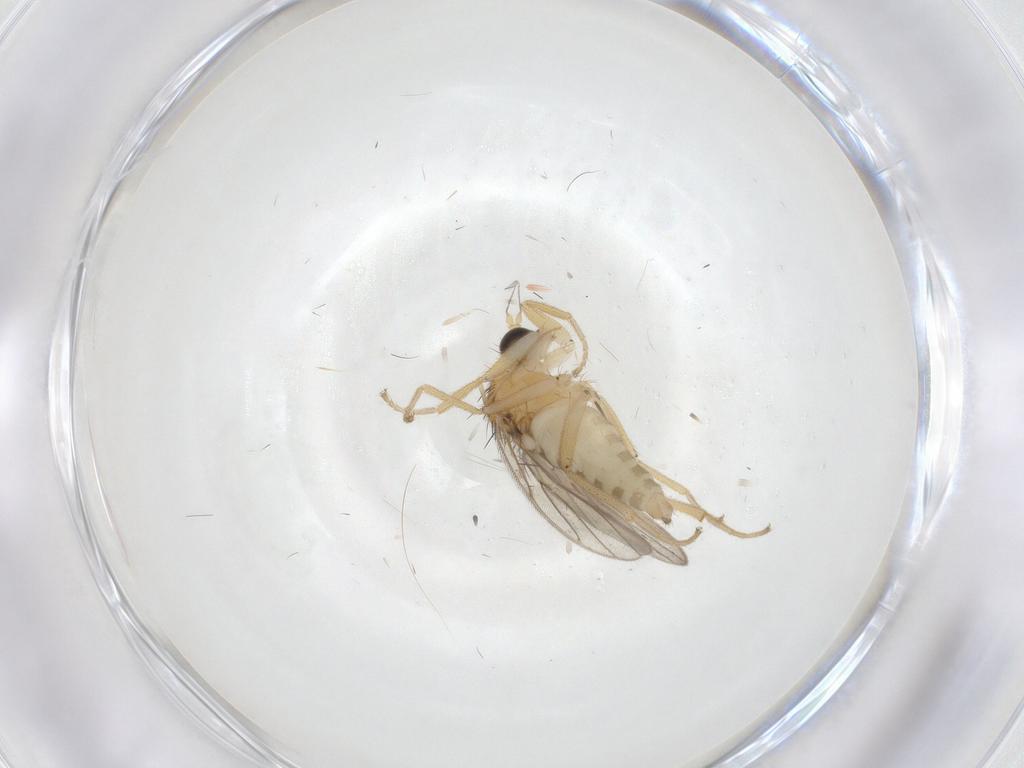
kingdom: Animalia
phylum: Arthropoda
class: Insecta
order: Diptera
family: Hybotidae
